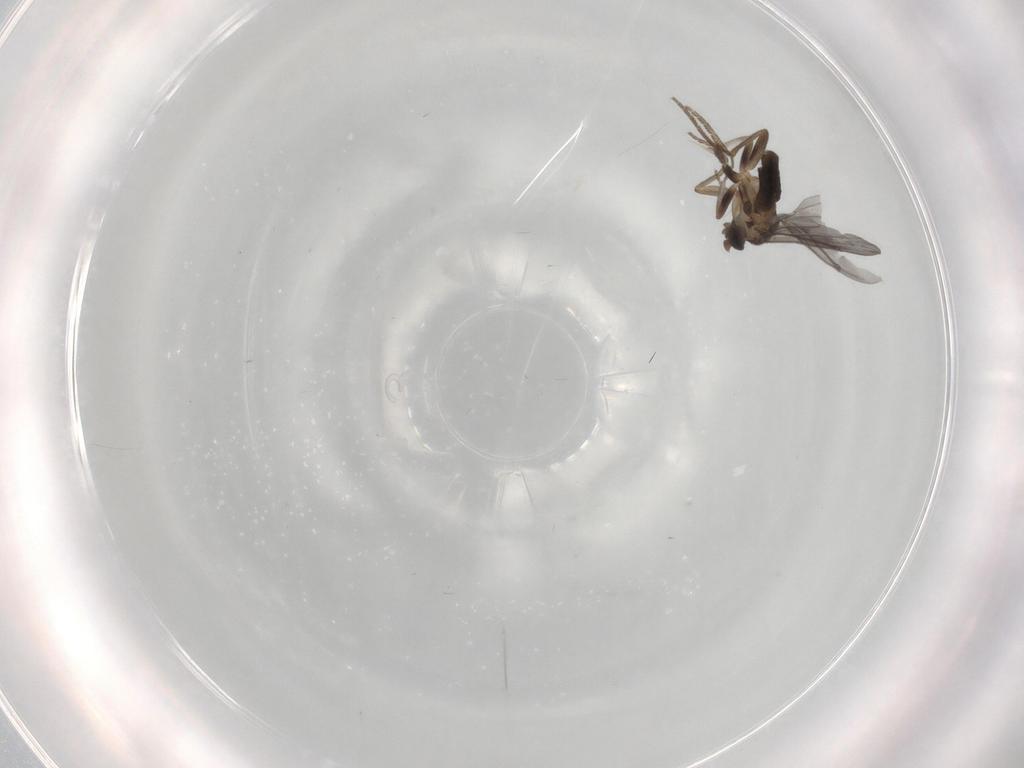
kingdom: Animalia
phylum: Arthropoda
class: Insecta
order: Diptera
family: Phoridae
